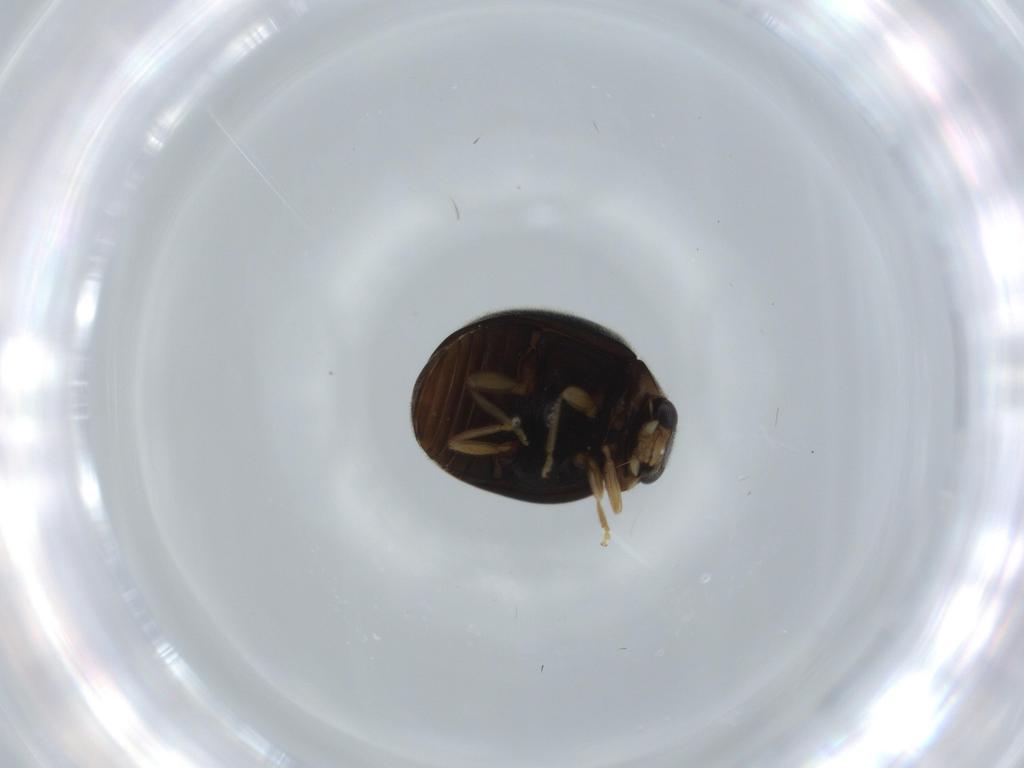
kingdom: Animalia
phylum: Arthropoda
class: Insecta
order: Coleoptera
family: Coccinellidae
